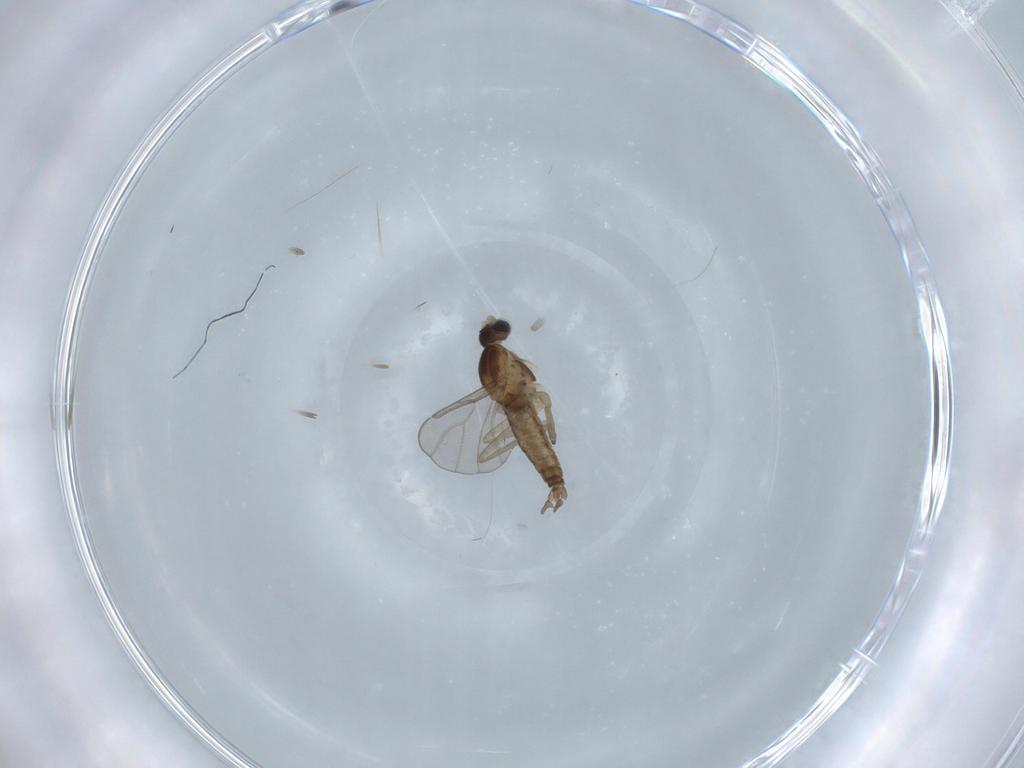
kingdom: Animalia
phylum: Arthropoda
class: Insecta
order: Diptera
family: Cecidomyiidae
